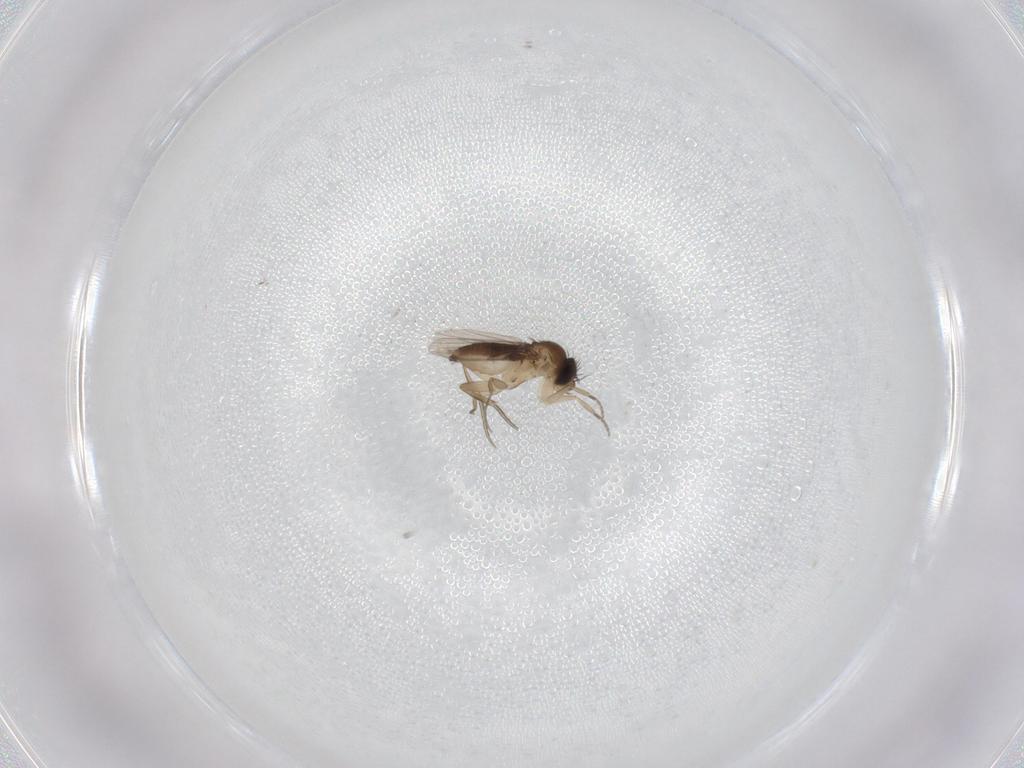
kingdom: Animalia
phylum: Arthropoda
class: Insecta
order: Diptera
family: Phoridae
